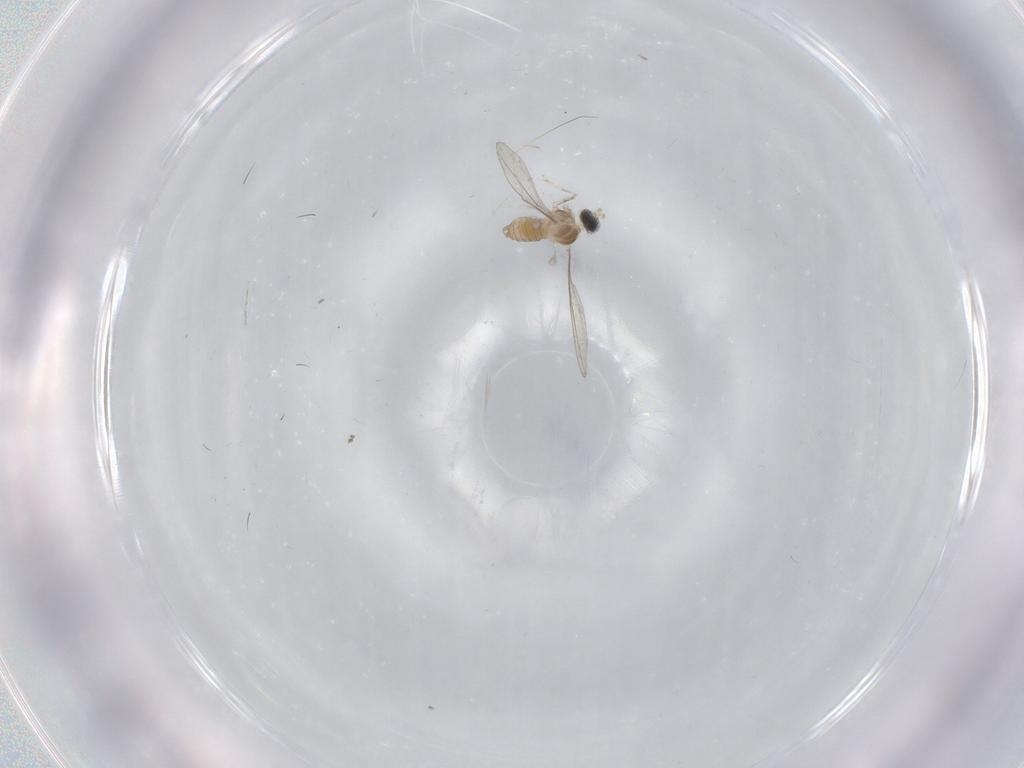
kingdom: Animalia
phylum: Arthropoda
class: Insecta
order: Diptera
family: Cecidomyiidae
